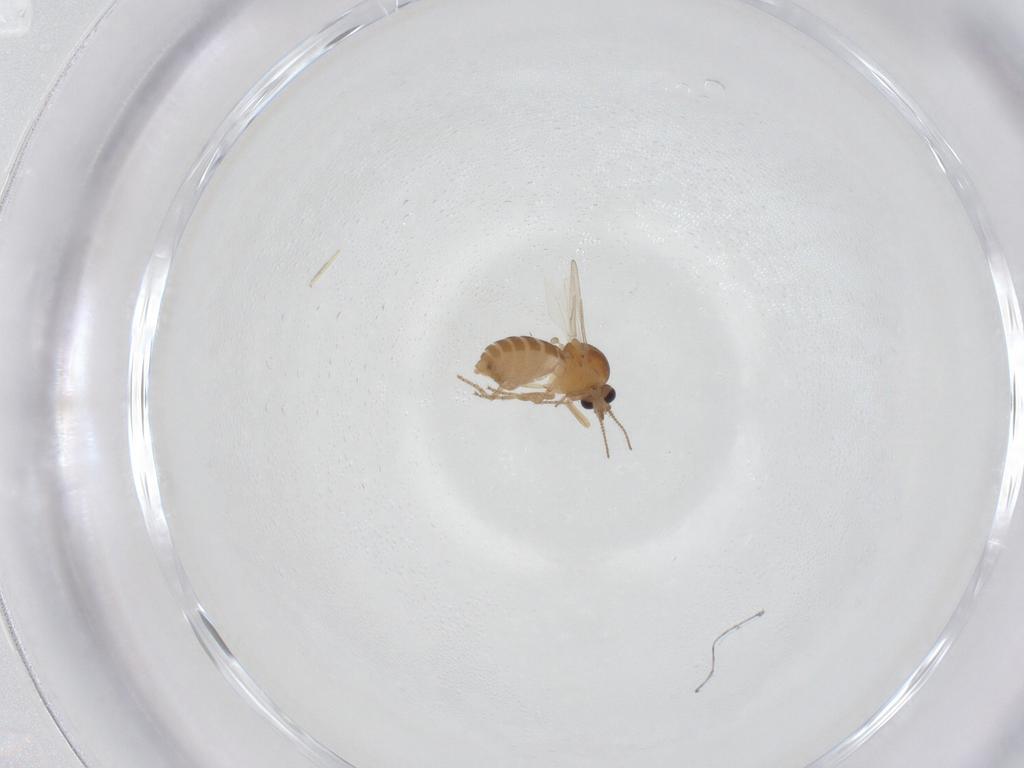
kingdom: Animalia
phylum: Arthropoda
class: Insecta
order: Diptera
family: Ceratopogonidae
